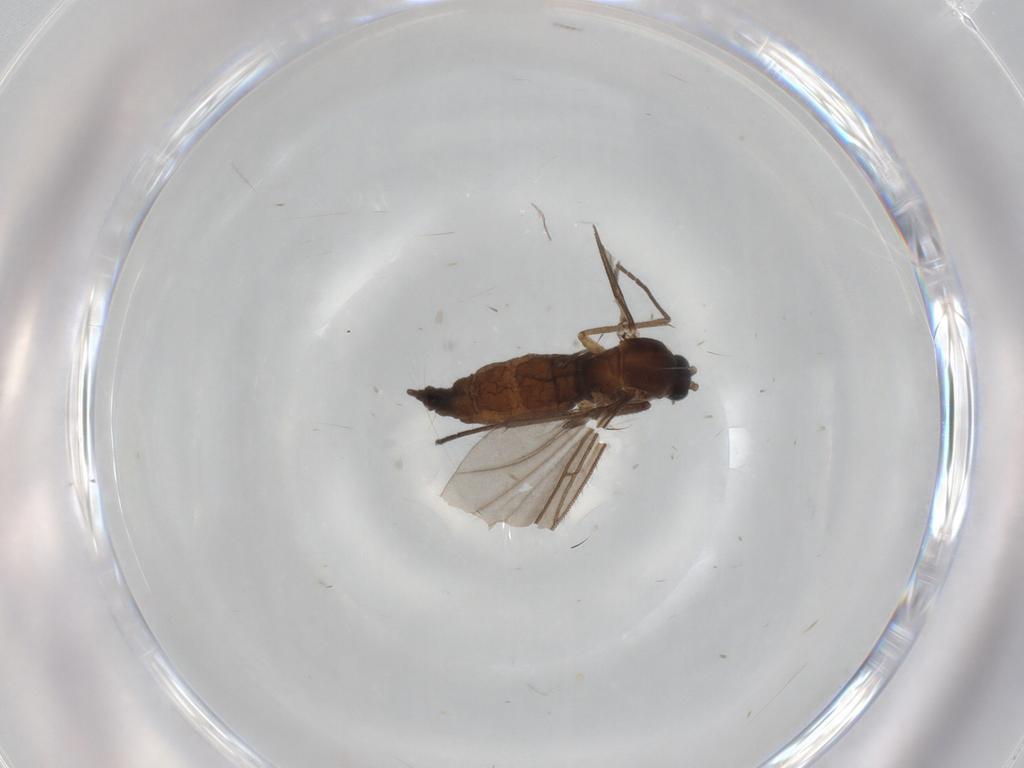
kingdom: Animalia
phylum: Arthropoda
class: Insecta
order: Diptera
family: Sciaridae
